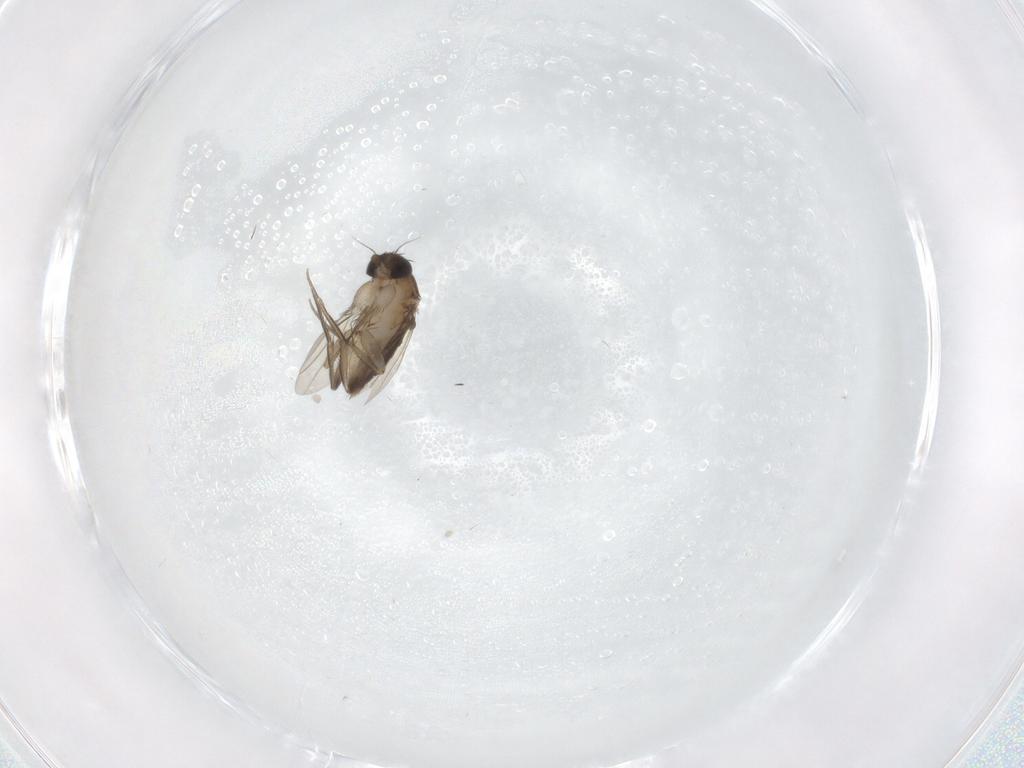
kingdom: Animalia
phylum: Arthropoda
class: Insecta
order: Diptera
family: Phoridae
